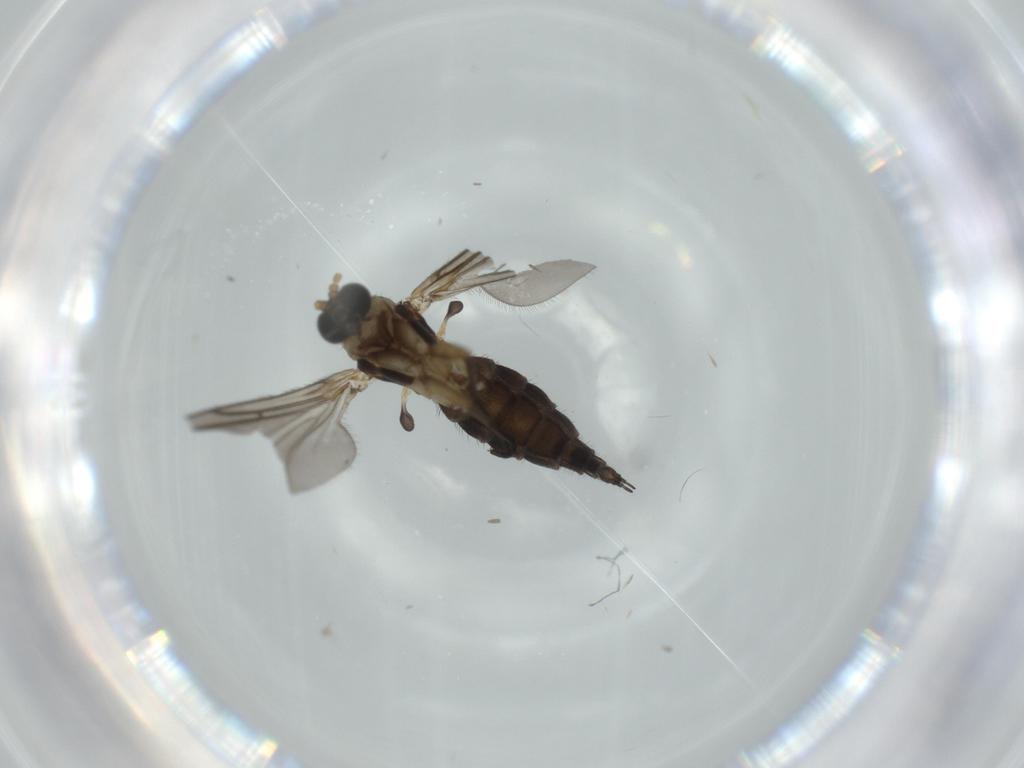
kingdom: Animalia
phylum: Arthropoda
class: Insecta
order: Diptera
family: Sciaridae
